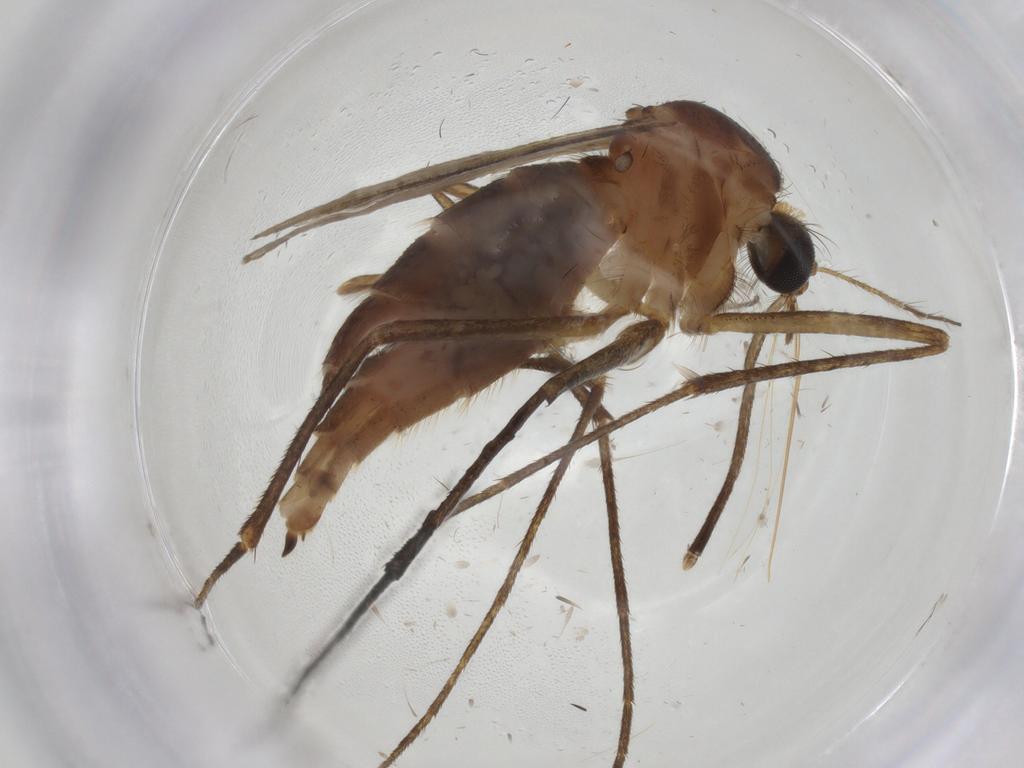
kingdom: Animalia
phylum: Arthropoda
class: Insecta
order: Diptera
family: Culicidae
